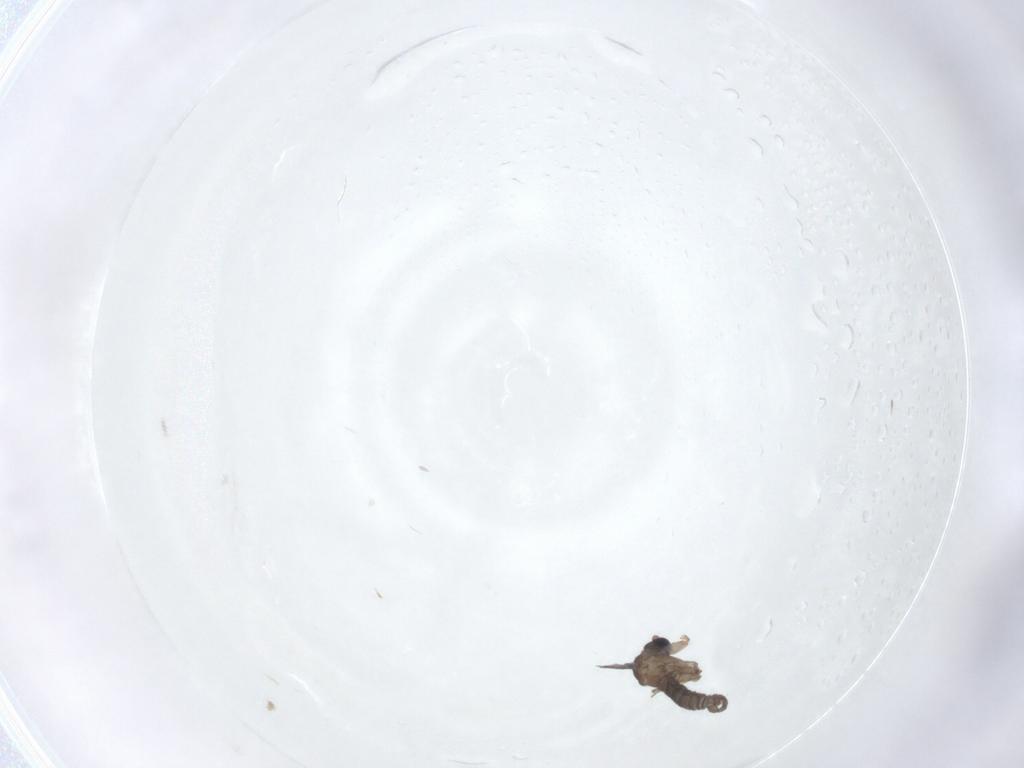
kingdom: Animalia
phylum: Arthropoda
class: Insecta
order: Diptera
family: Sciaridae
